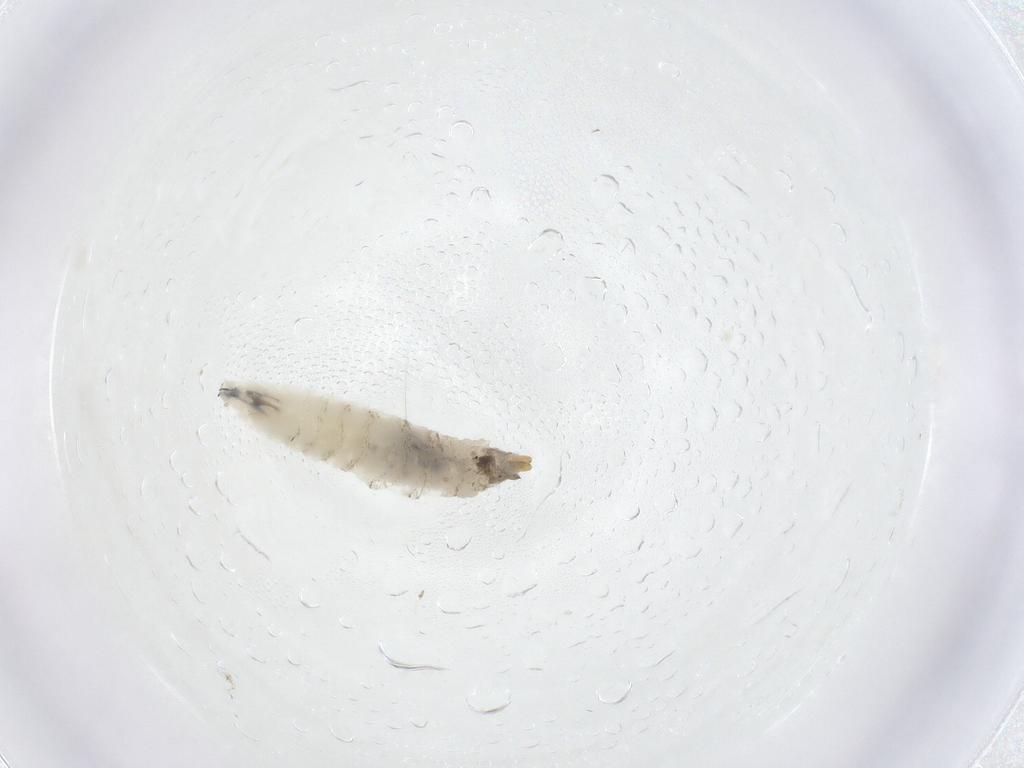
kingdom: Animalia
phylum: Arthropoda
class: Insecta
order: Diptera
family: Drosophilidae
